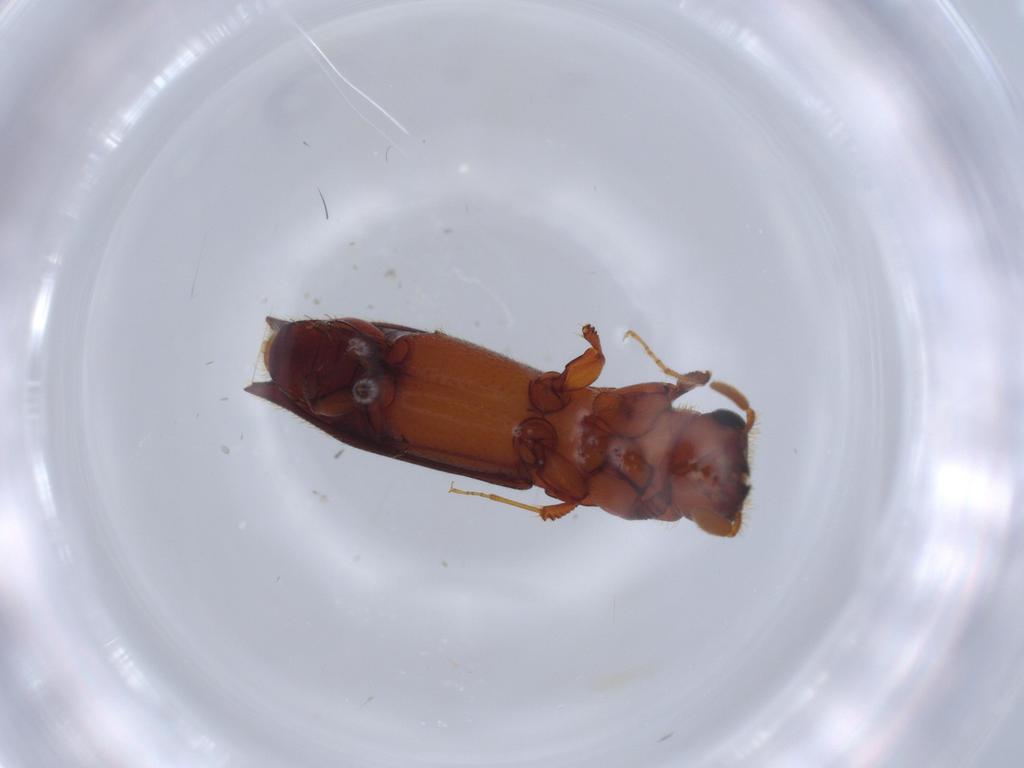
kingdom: Animalia
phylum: Arthropoda
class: Insecta
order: Coleoptera
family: Curculionidae
